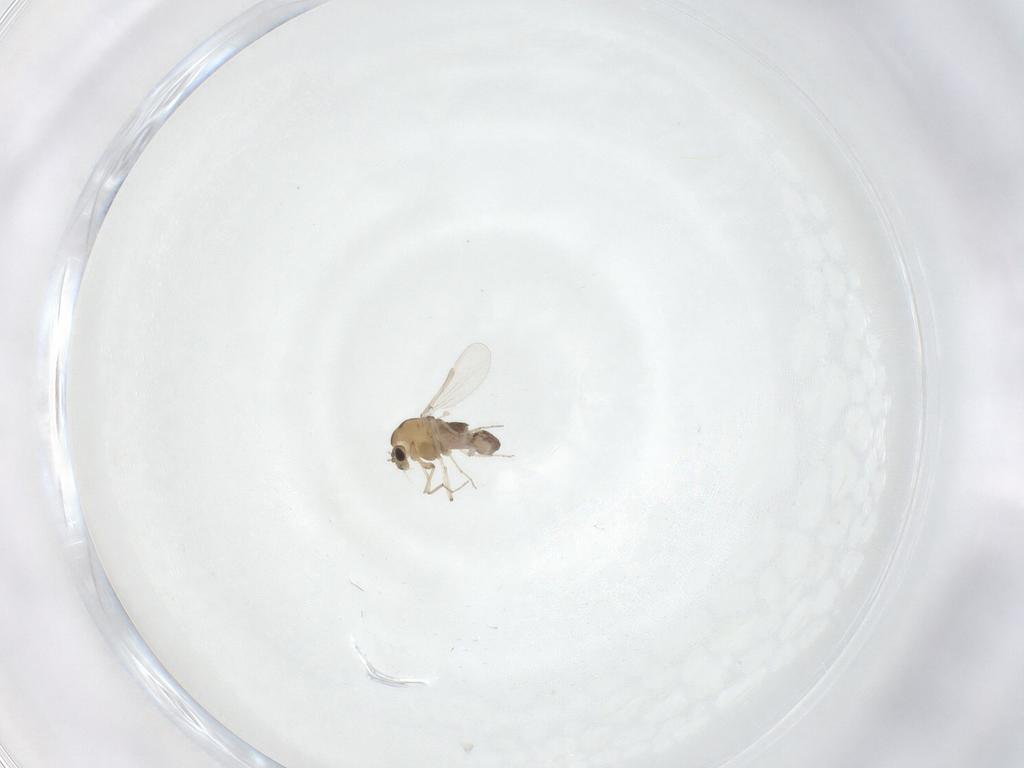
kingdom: Animalia
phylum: Arthropoda
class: Insecta
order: Diptera
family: Chironomidae
